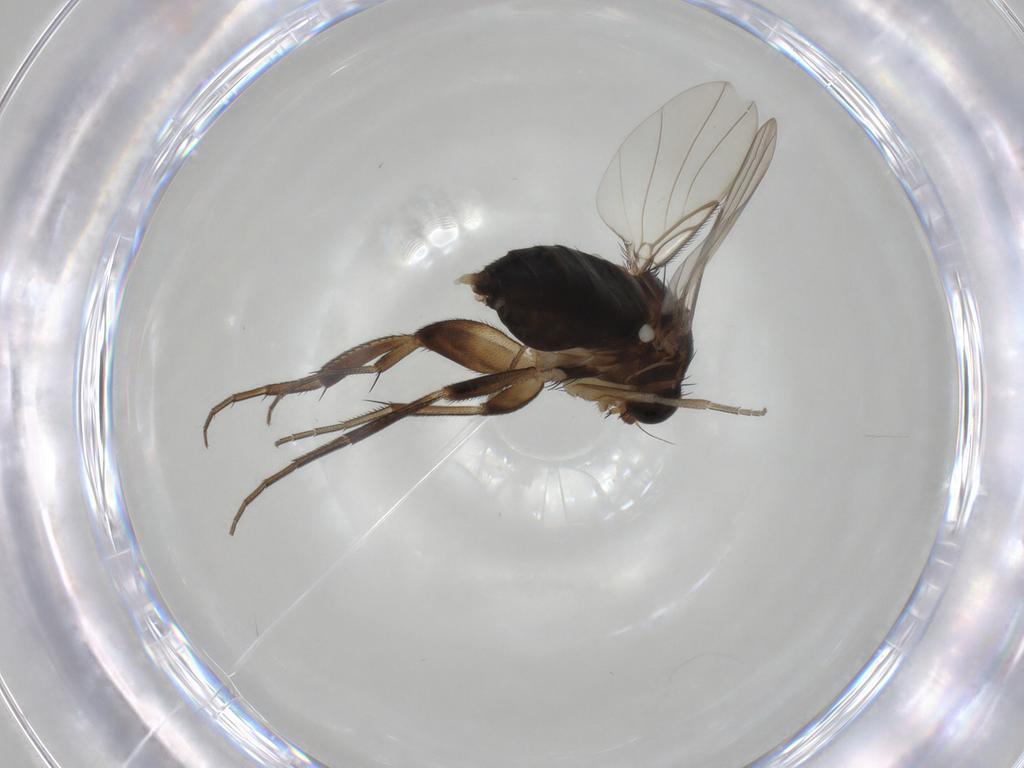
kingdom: Animalia
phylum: Arthropoda
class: Insecta
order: Diptera
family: Phoridae
